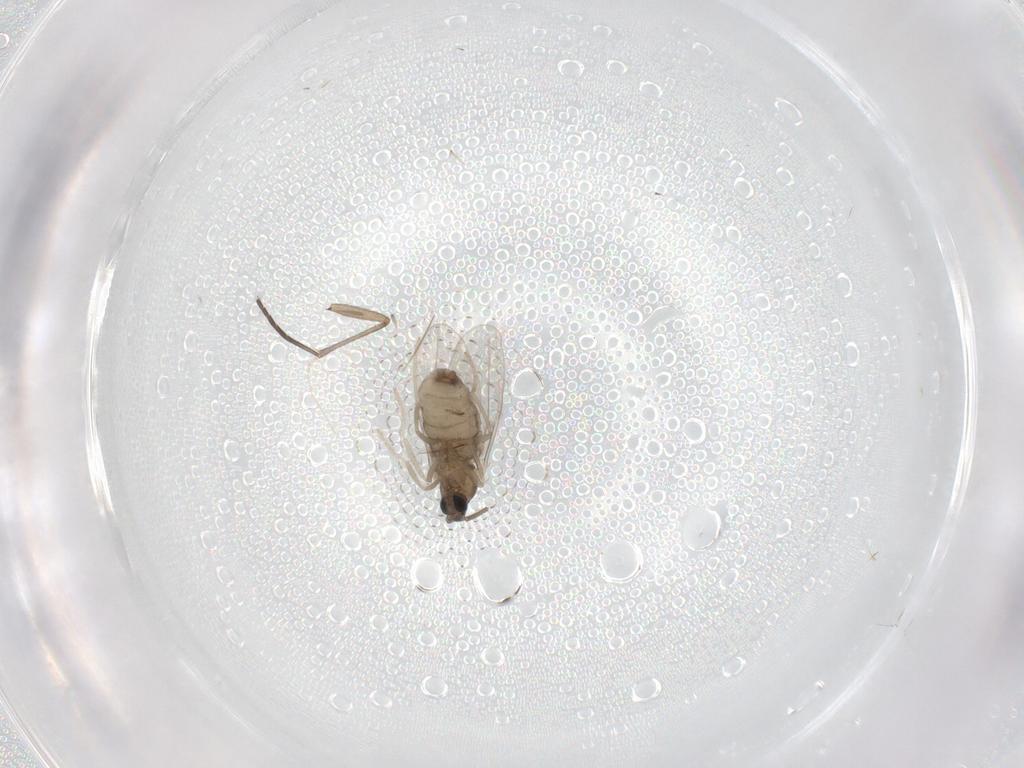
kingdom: Animalia
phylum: Arthropoda
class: Insecta
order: Diptera
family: Cecidomyiidae
